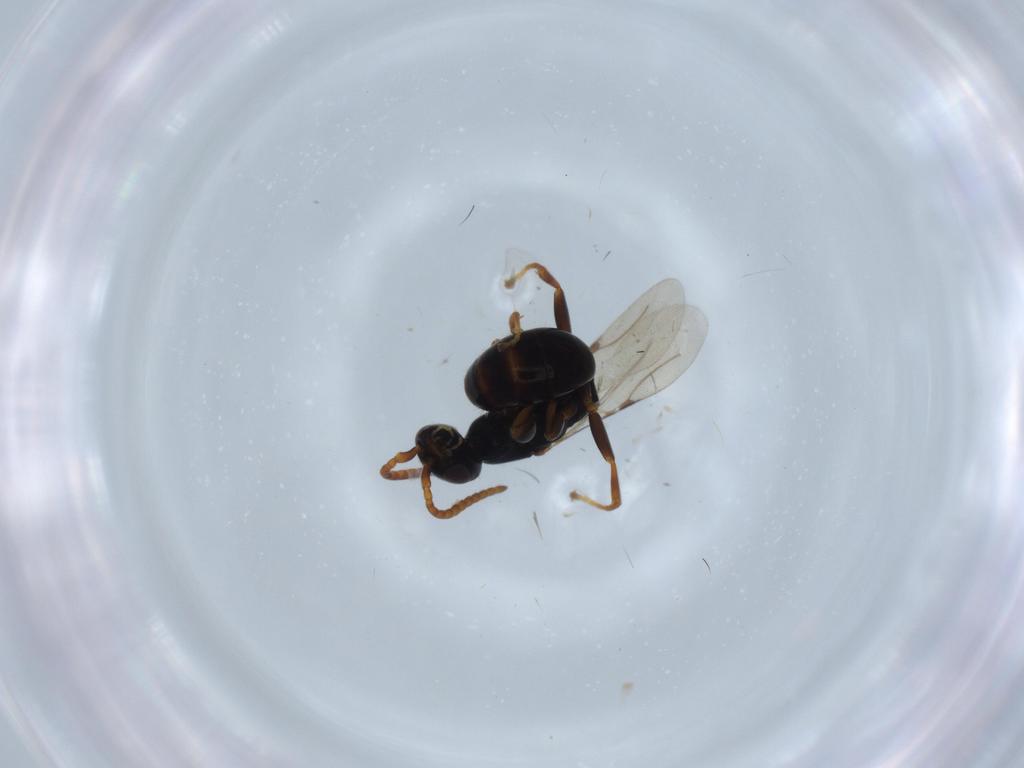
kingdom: Animalia
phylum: Arthropoda
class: Insecta
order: Hymenoptera
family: Bethylidae
